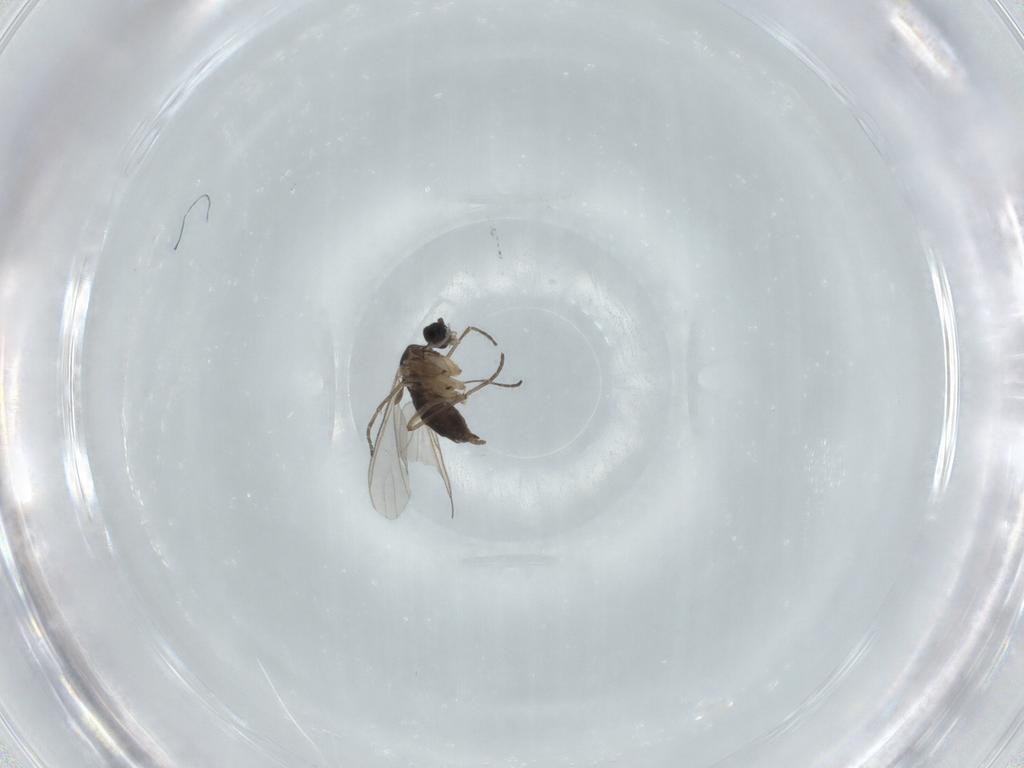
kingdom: Animalia
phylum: Arthropoda
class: Insecta
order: Diptera
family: Sciaridae
